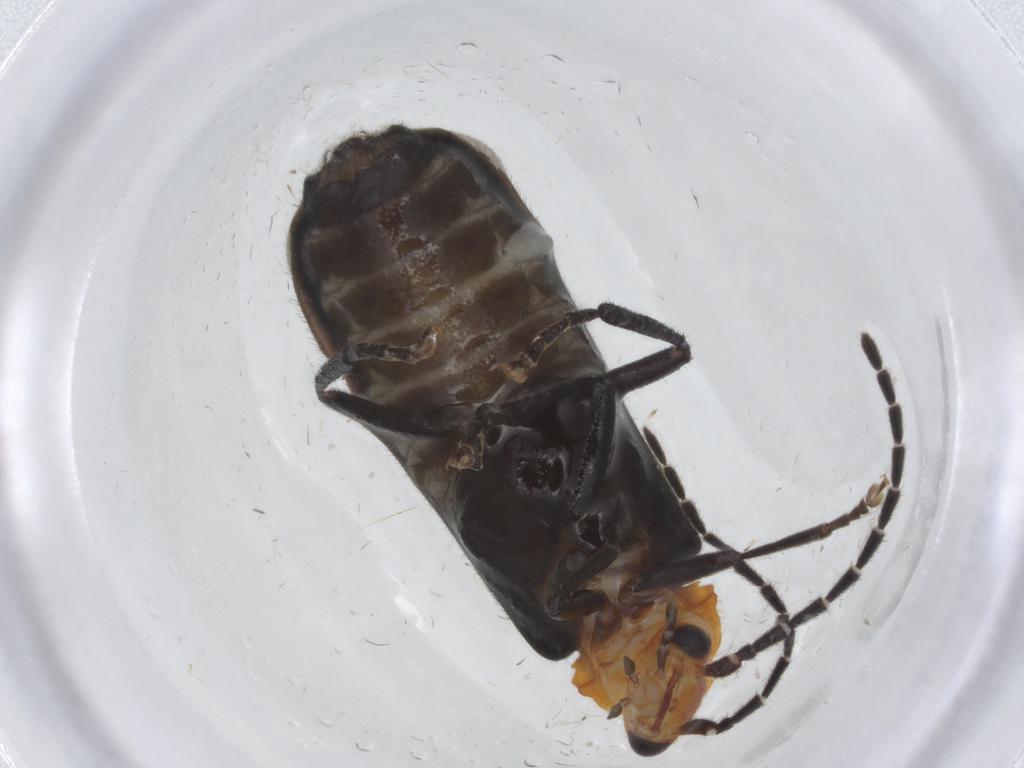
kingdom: Animalia
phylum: Arthropoda
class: Insecta
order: Coleoptera
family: Cantharidae
